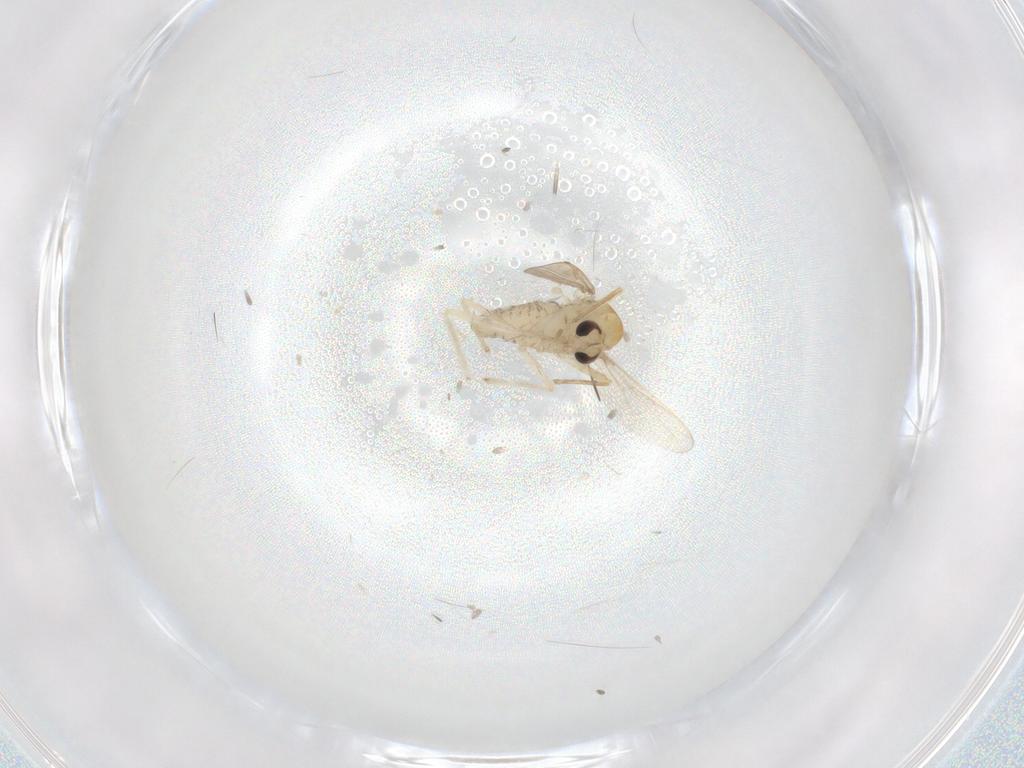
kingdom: Animalia
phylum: Arthropoda
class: Insecta
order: Diptera
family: Chironomidae
